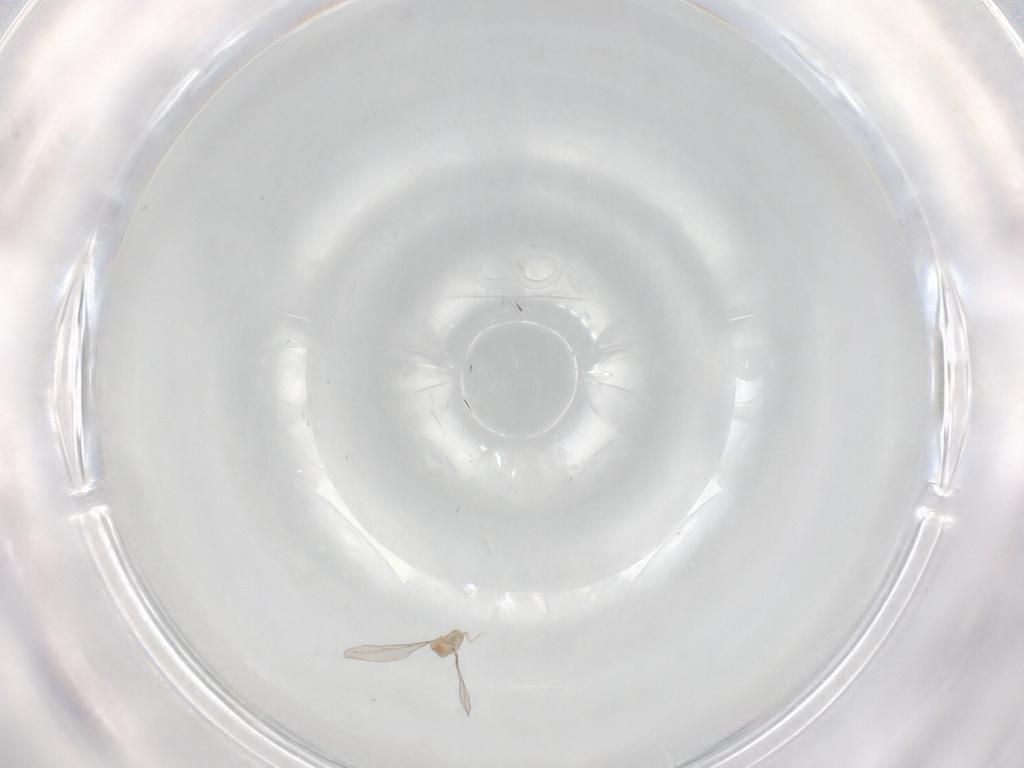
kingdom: Animalia
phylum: Arthropoda
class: Insecta
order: Diptera
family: Cecidomyiidae
